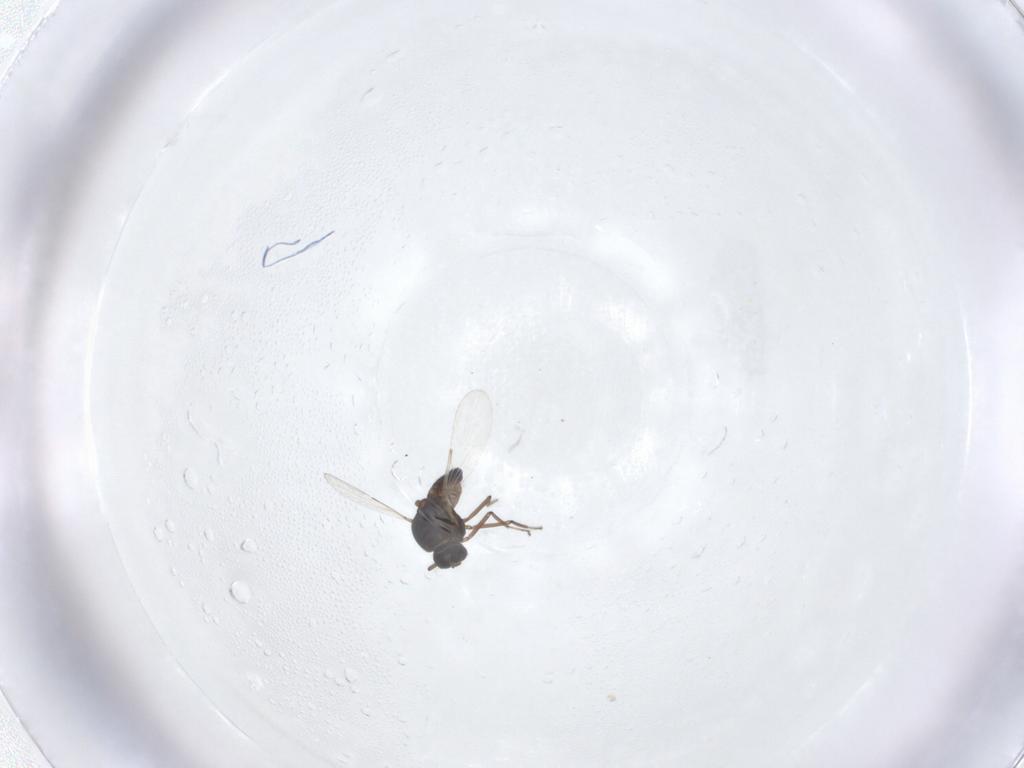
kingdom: Animalia
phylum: Arthropoda
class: Insecta
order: Diptera
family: Ceratopogonidae
